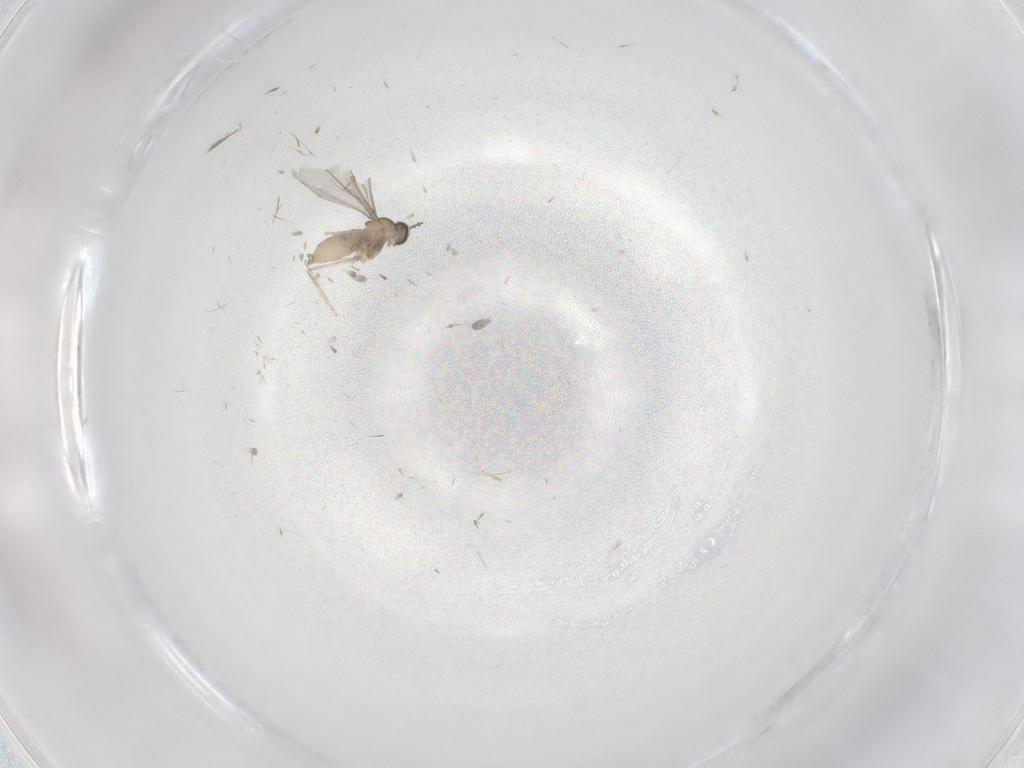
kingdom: Animalia
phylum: Arthropoda
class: Insecta
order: Diptera
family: Cecidomyiidae
